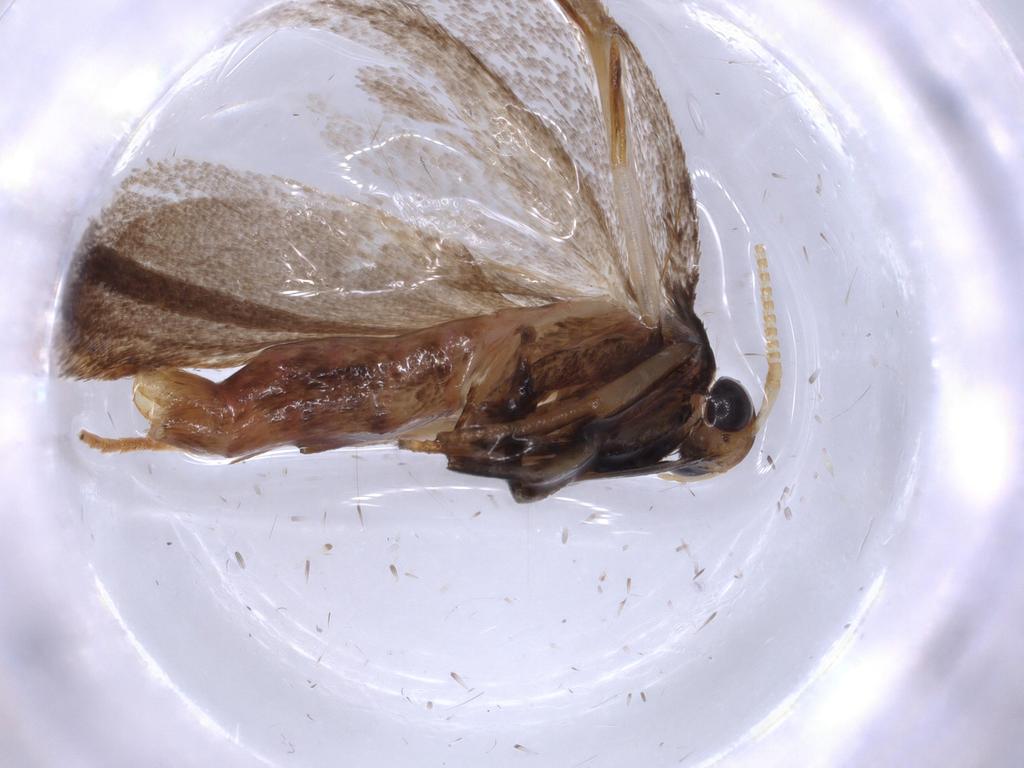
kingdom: Animalia
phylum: Arthropoda
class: Insecta
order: Lepidoptera
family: Lecithoceridae
